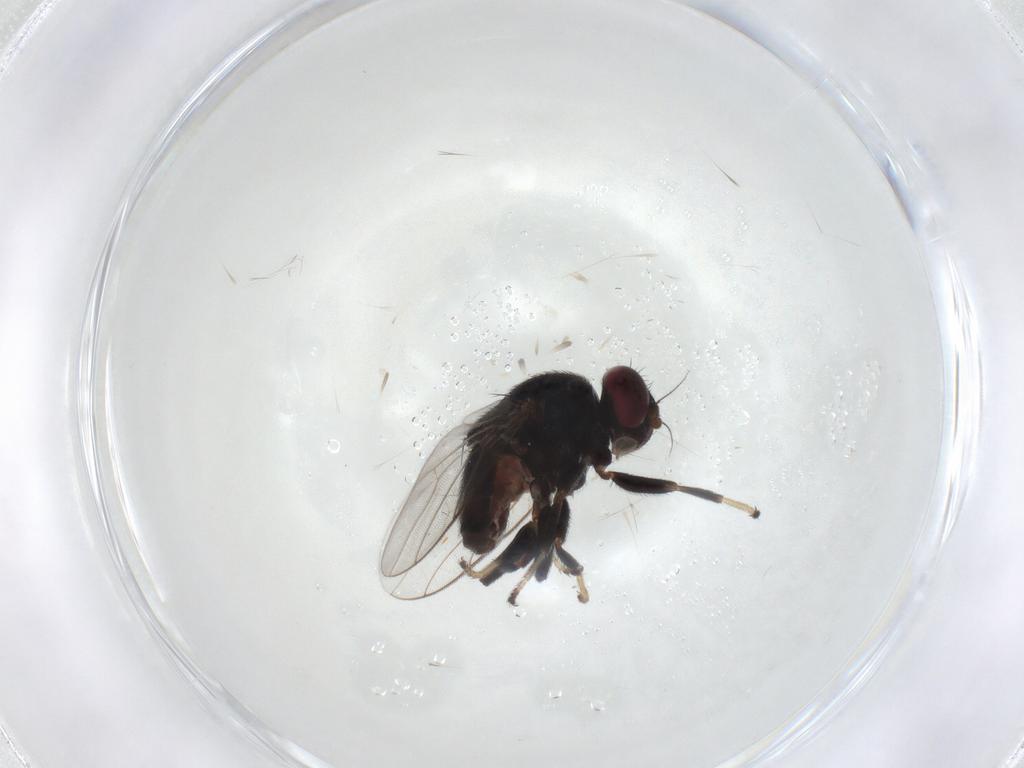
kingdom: Animalia
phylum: Arthropoda
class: Insecta
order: Diptera
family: Chloropidae
